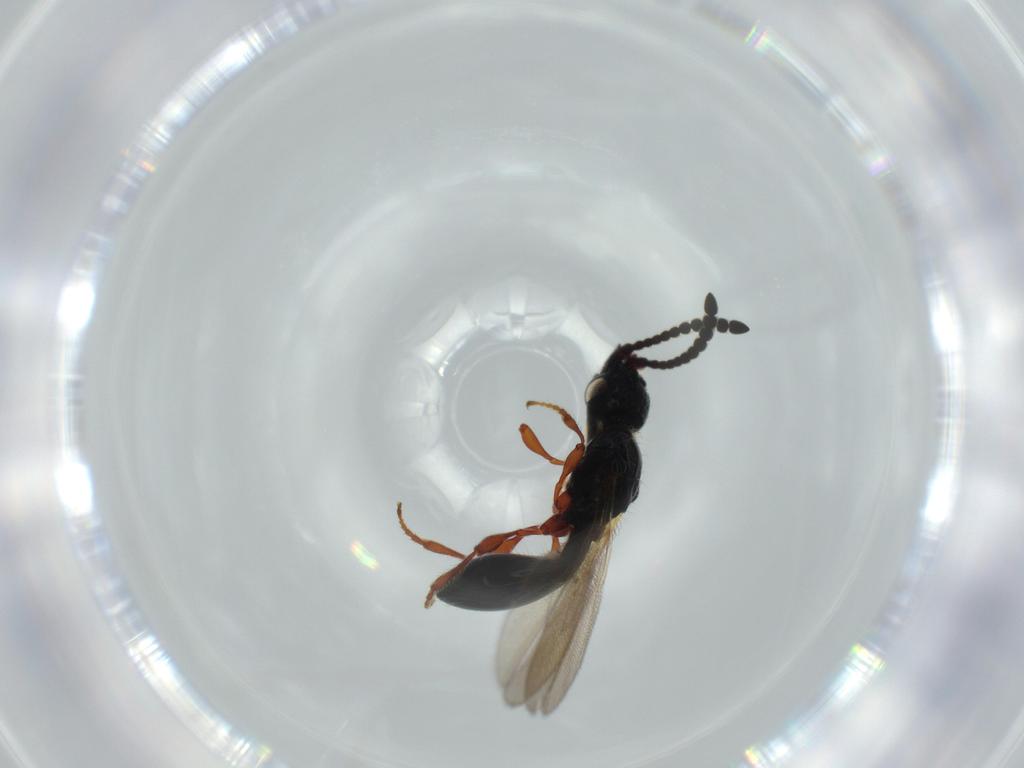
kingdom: Animalia
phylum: Arthropoda
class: Insecta
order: Hymenoptera
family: Diapriidae
